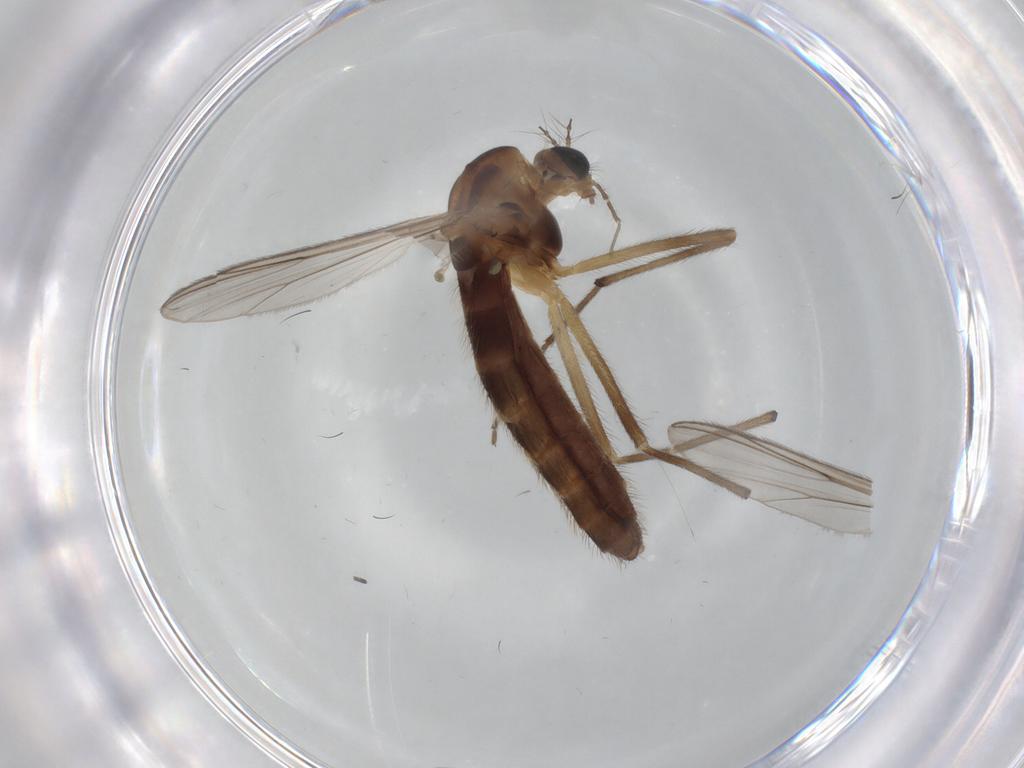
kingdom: Animalia
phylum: Arthropoda
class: Insecta
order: Diptera
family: Chironomidae
